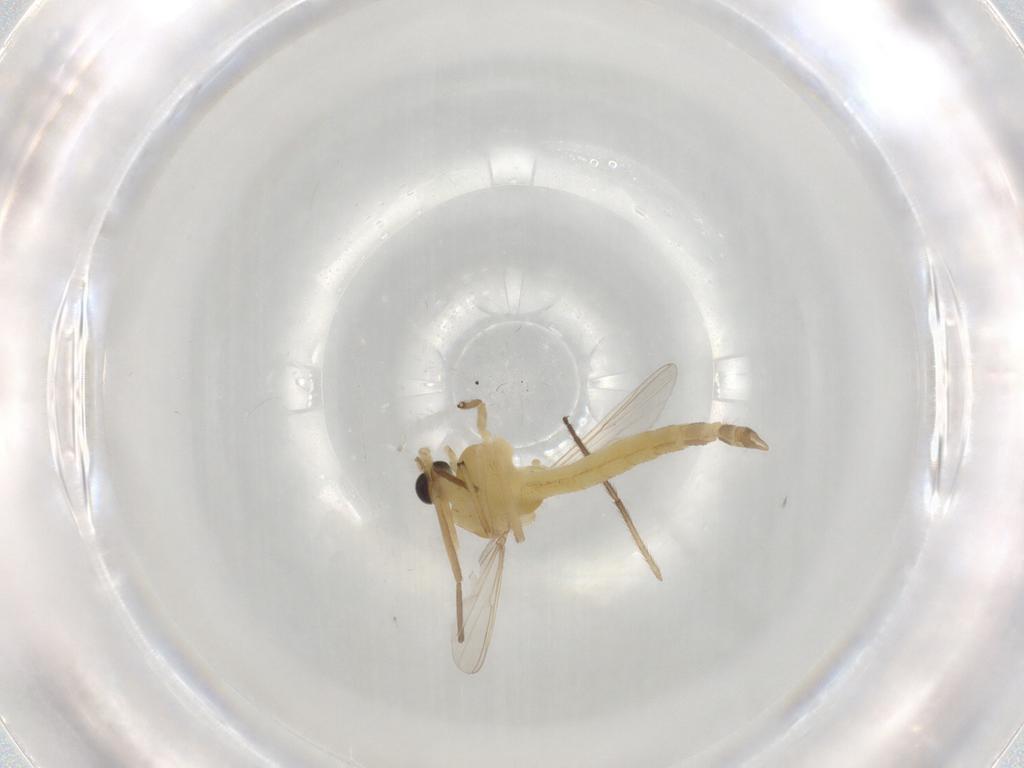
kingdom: Animalia
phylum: Arthropoda
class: Insecta
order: Diptera
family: Chironomidae
